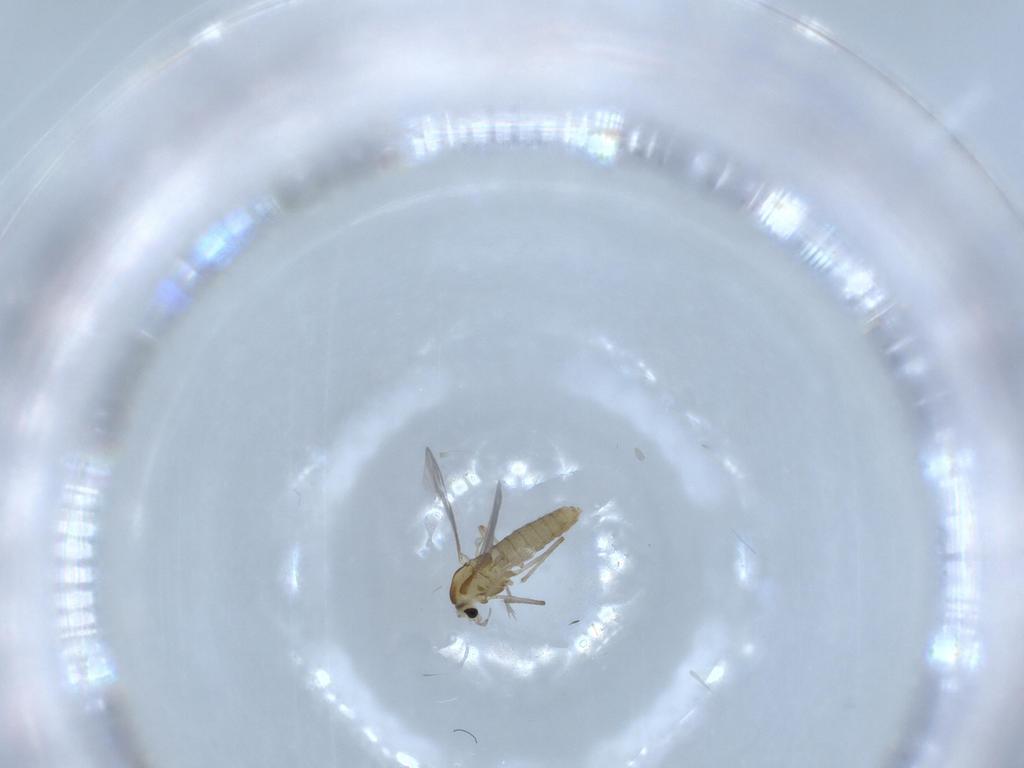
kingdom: Animalia
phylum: Arthropoda
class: Insecta
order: Diptera
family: Chironomidae
